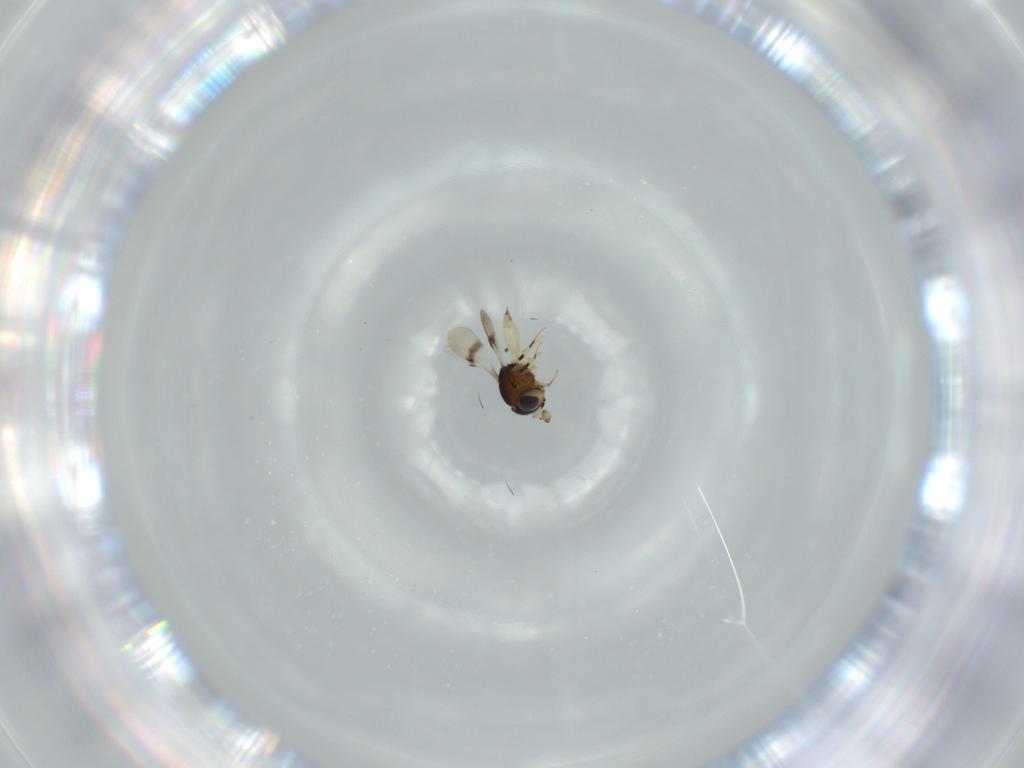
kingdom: Animalia
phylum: Arthropoda
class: Insecta
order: Hymenoptera
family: Scelionidae
